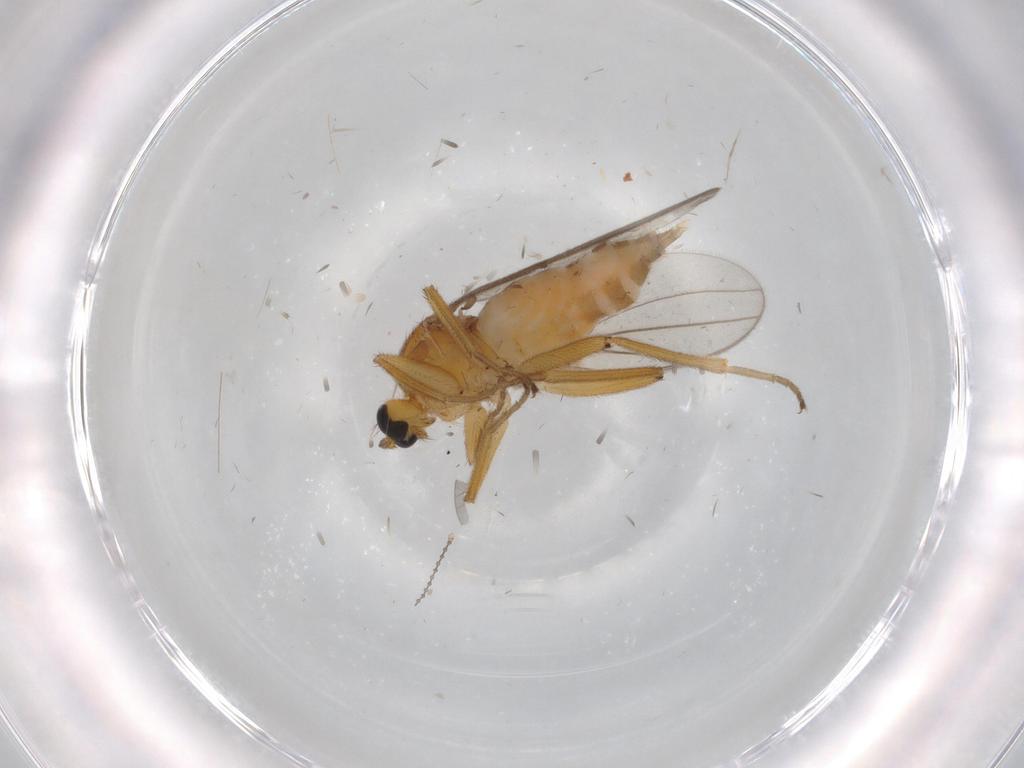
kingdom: Animalia
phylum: Arthropoda
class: Insecta
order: Diptera
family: Hybotidae
